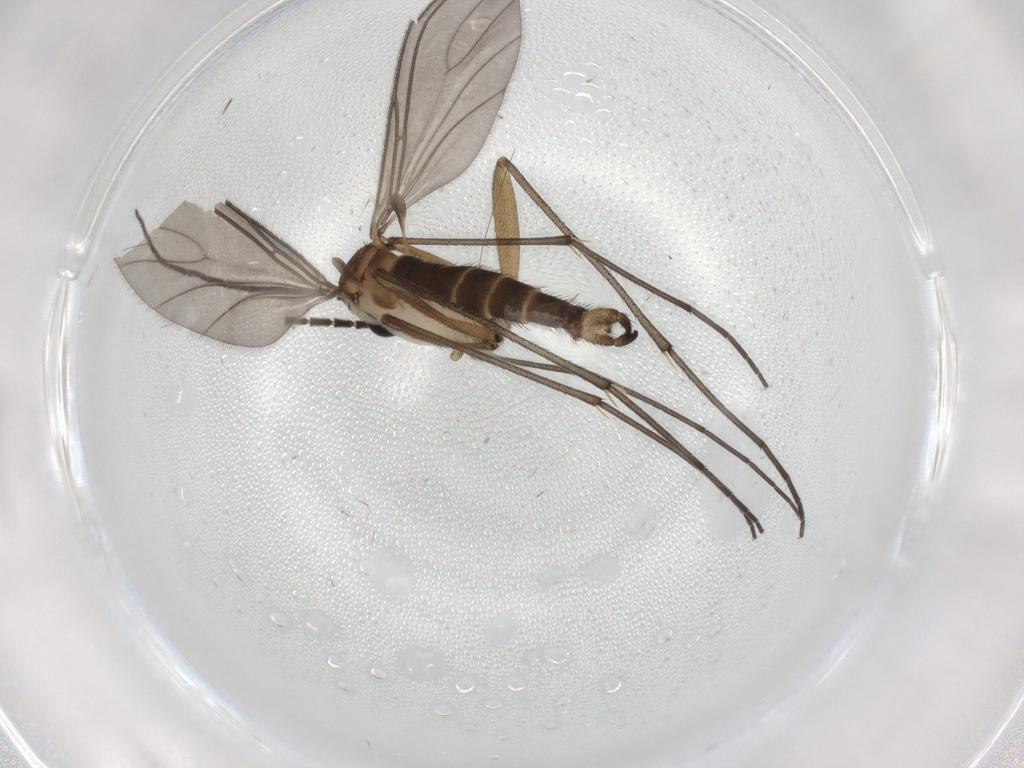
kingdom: Animalia
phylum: Arthropoda
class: Insecta
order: Diptera
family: Sciaridae
